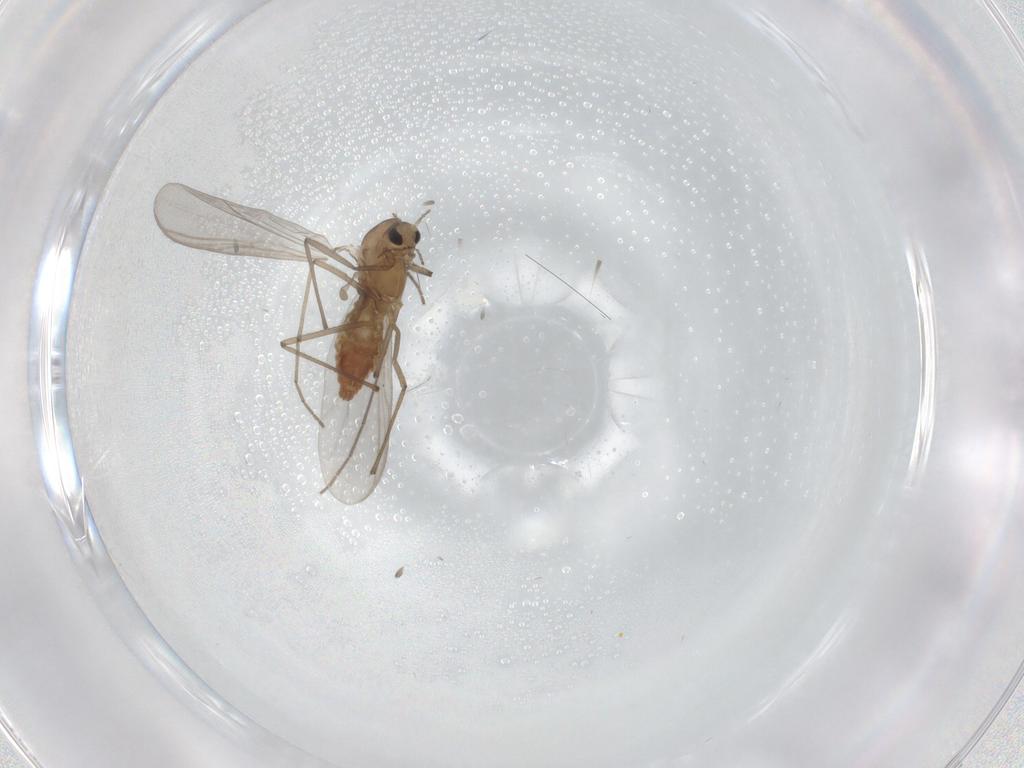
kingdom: Animalia
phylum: Arthropoda
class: Insecta
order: Diptera
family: Chironomidae
